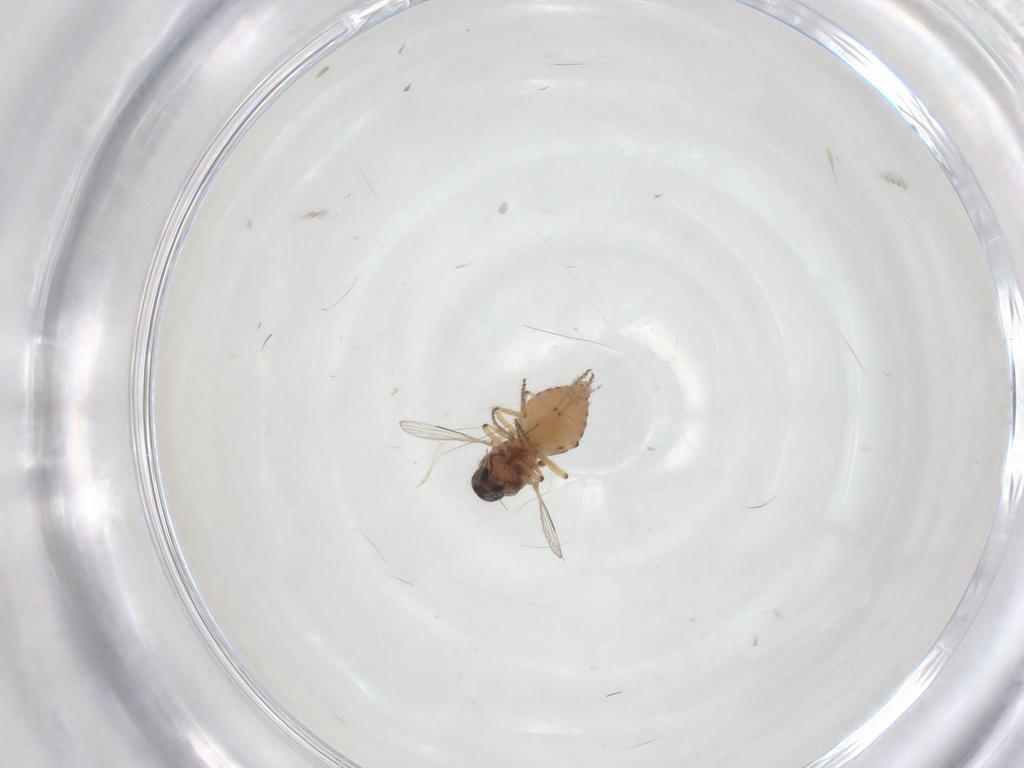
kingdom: Animalia
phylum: Arthropoda
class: Insecta
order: Diptera
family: Ceratopogonidae
